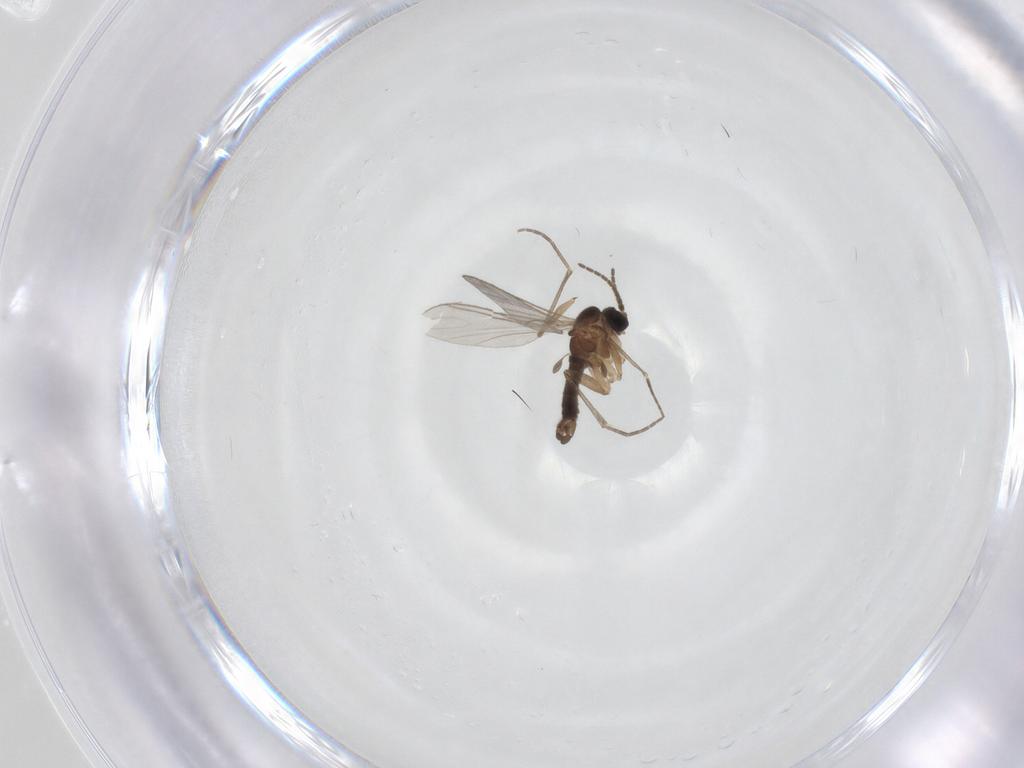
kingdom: Animalia
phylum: Arthropoda
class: Insecta
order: Diptera
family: Sciaridae
